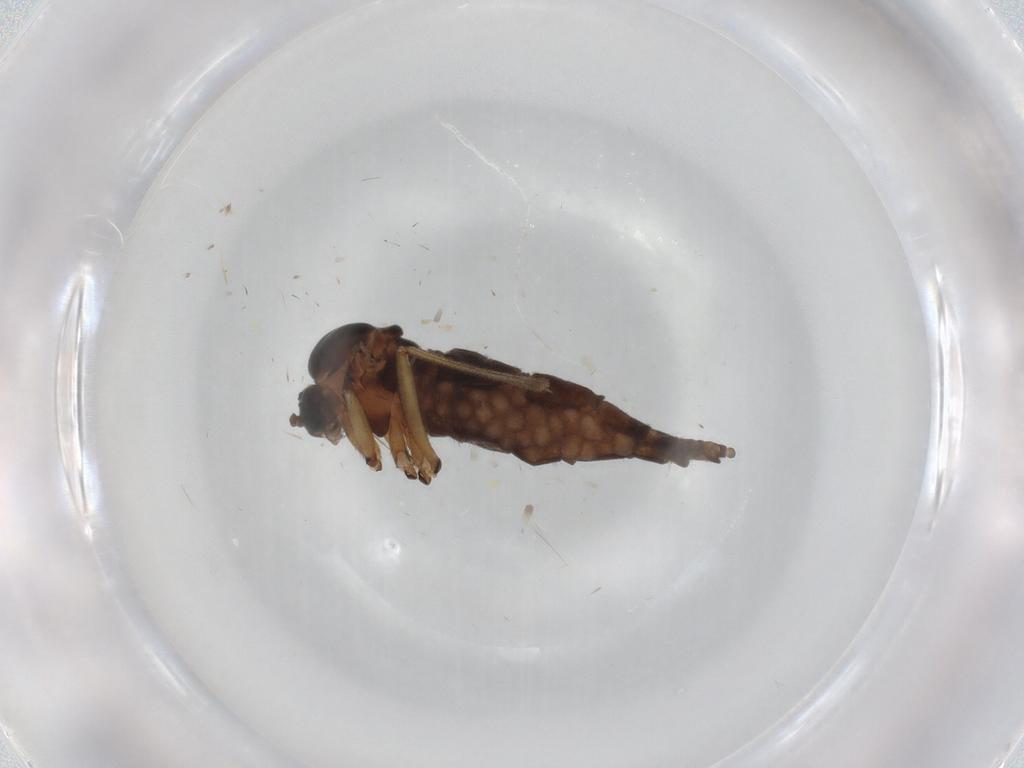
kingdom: Animalia
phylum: Arthropoda
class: Insecta
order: Diptera
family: Sciaridae
